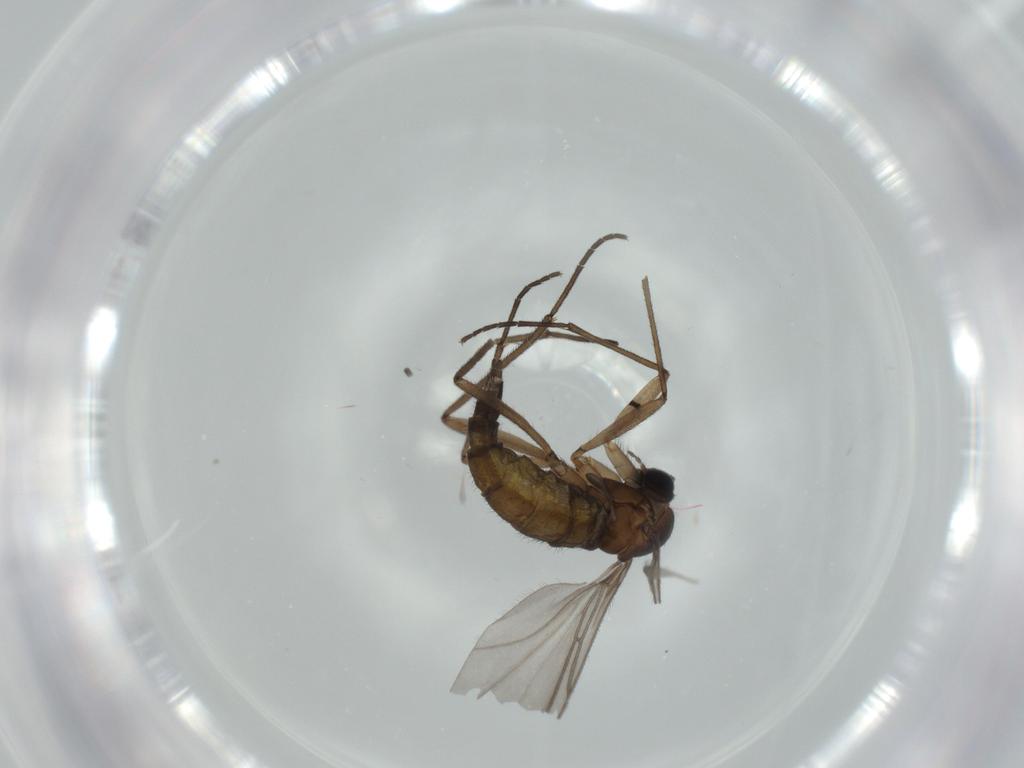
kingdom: Animalia
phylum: Arthropoda
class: Insecta
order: Diptera
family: Sciaridae
